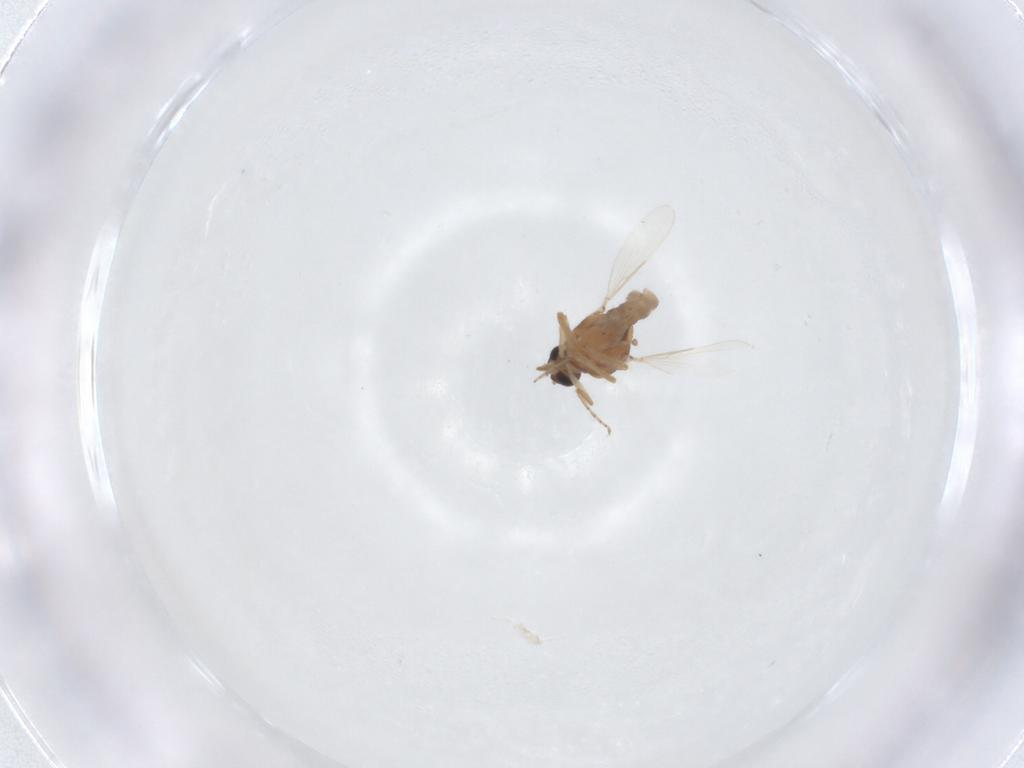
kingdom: Animalia
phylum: Arthropoda
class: Insecta
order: Diptera
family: Ceratopogonidae
